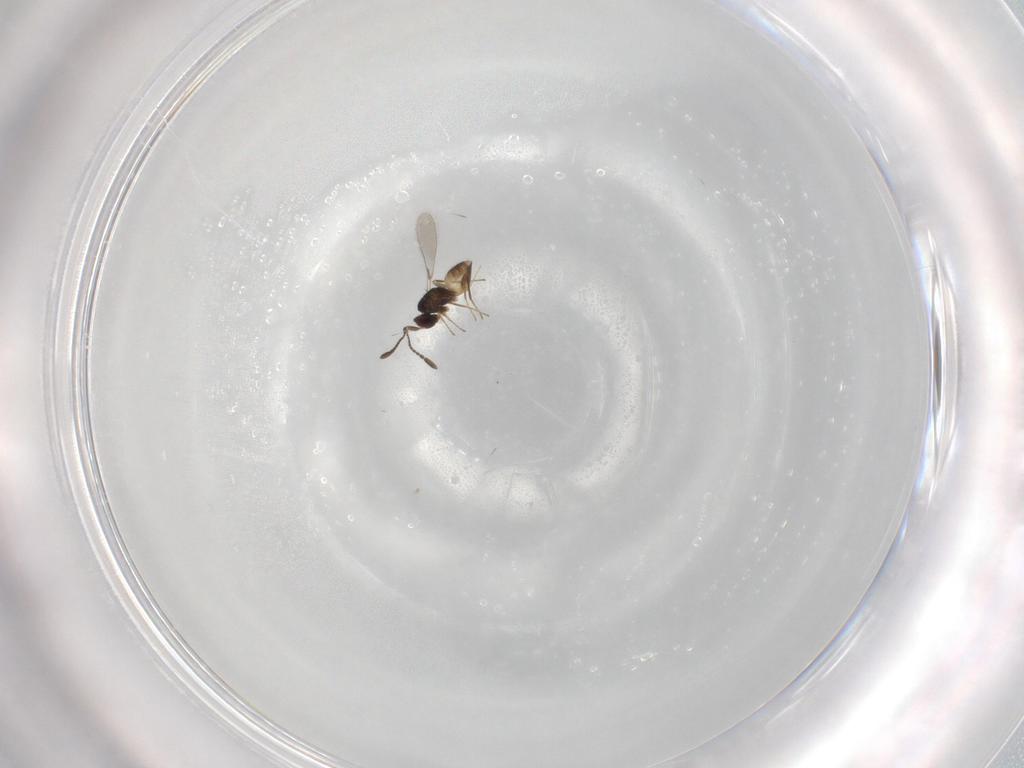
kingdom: Animalia
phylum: Arthropoda
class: Insecta
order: Hymenoptera
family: Mymaridae
